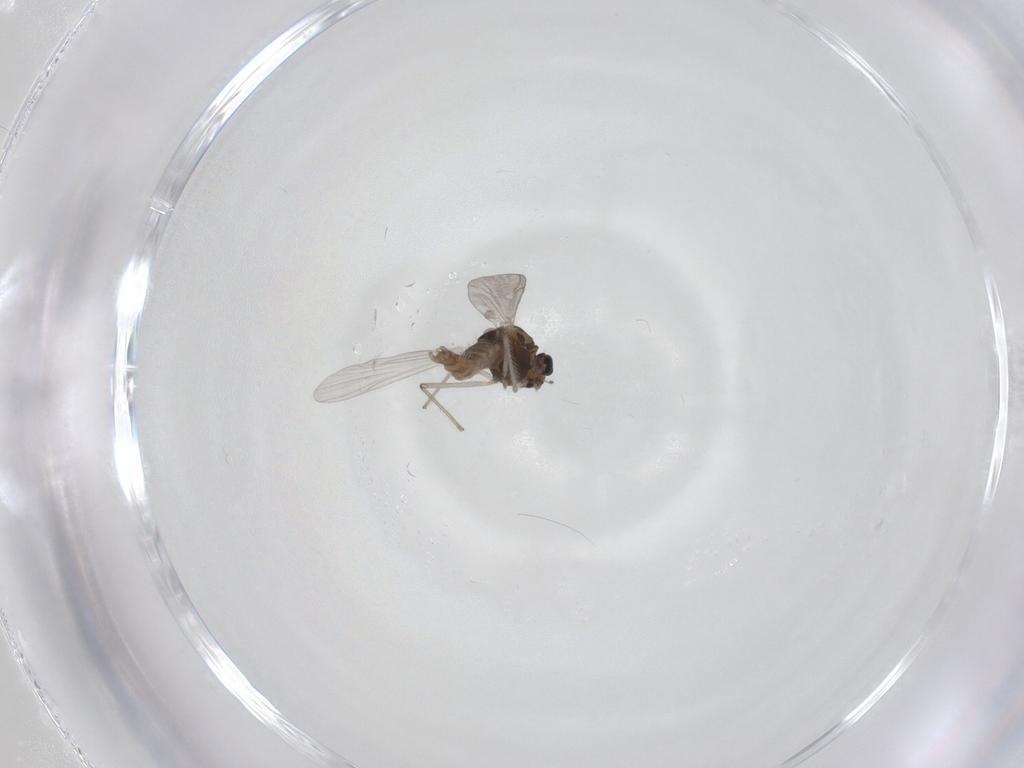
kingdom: Animalia
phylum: Arthropoda
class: Insecta
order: Diptera
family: Chironomidae
